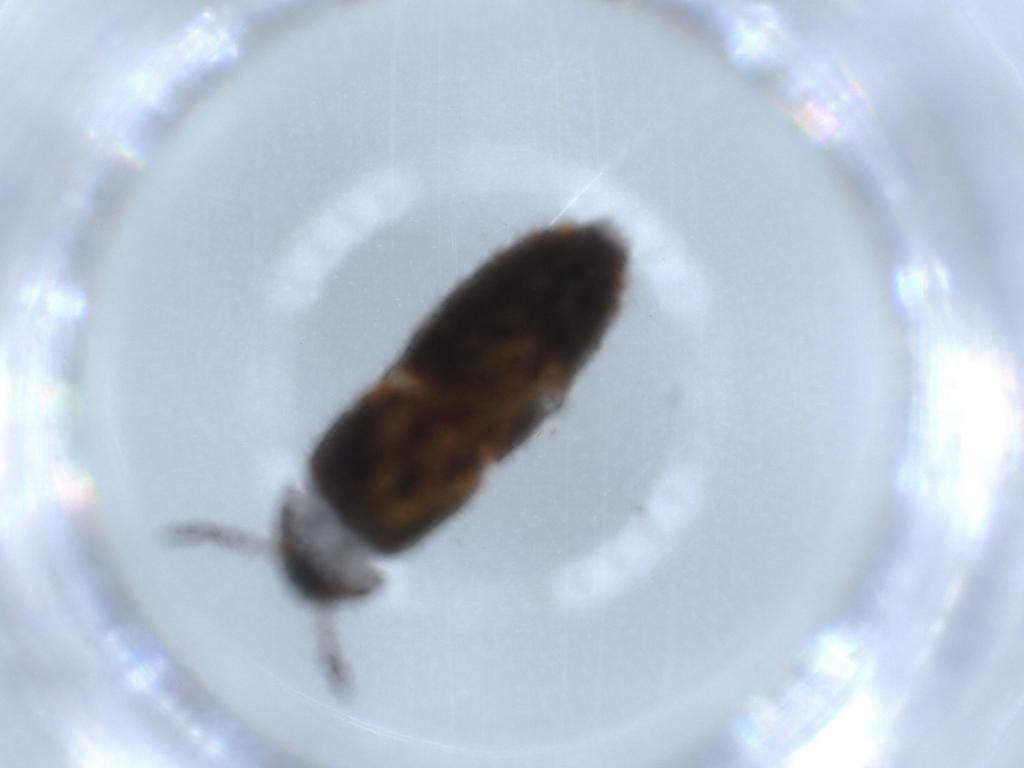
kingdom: Animalia
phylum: Arthropoda
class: Insecta
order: Coleoptera
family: Staphylinidae
